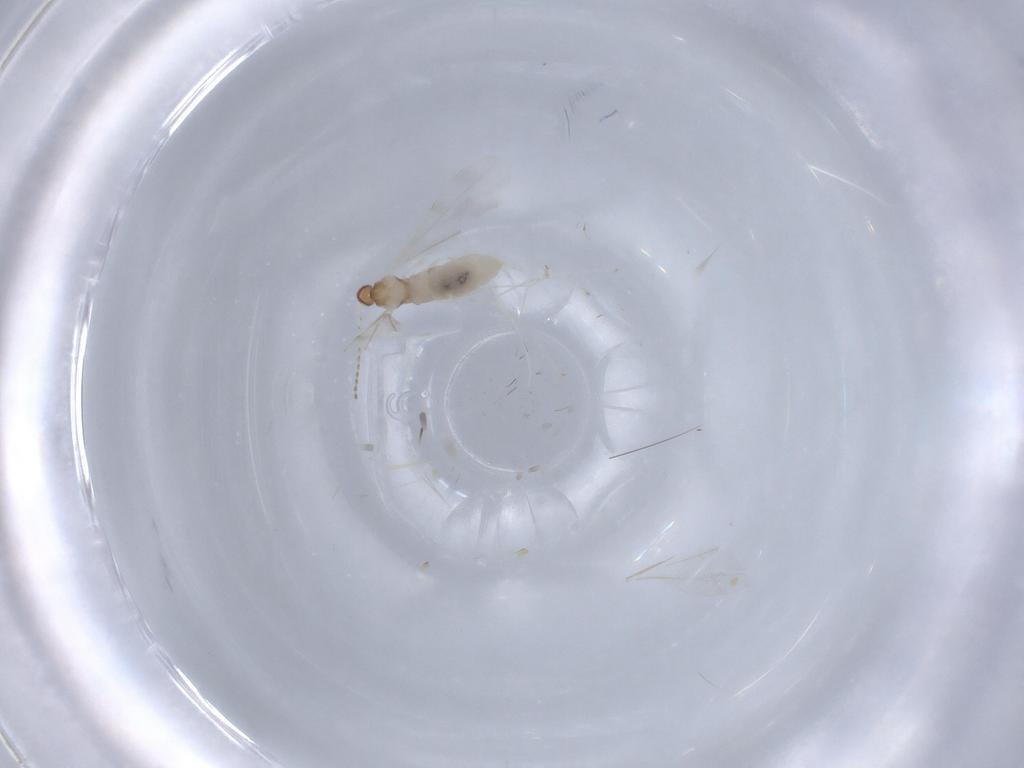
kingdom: Animalia
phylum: Arthropoda
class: Insecta
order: Diptera
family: Cecidomyiidae
